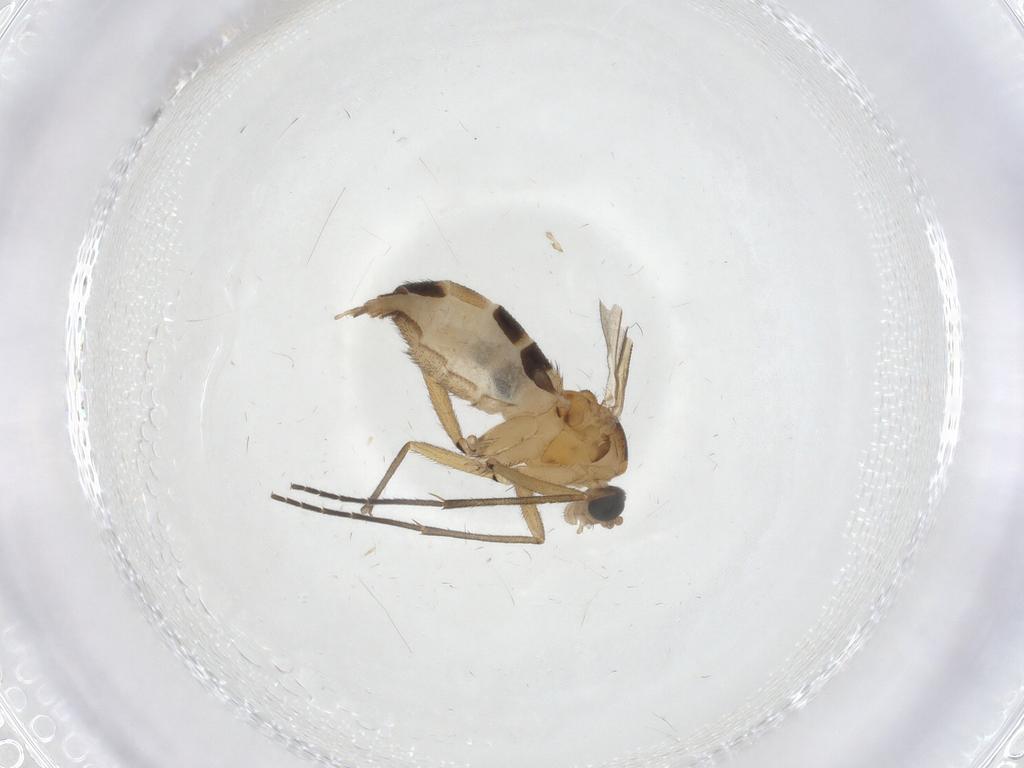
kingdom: Animalia
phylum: Arthropoda
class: Insecta
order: Diptera
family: Sciaridae
